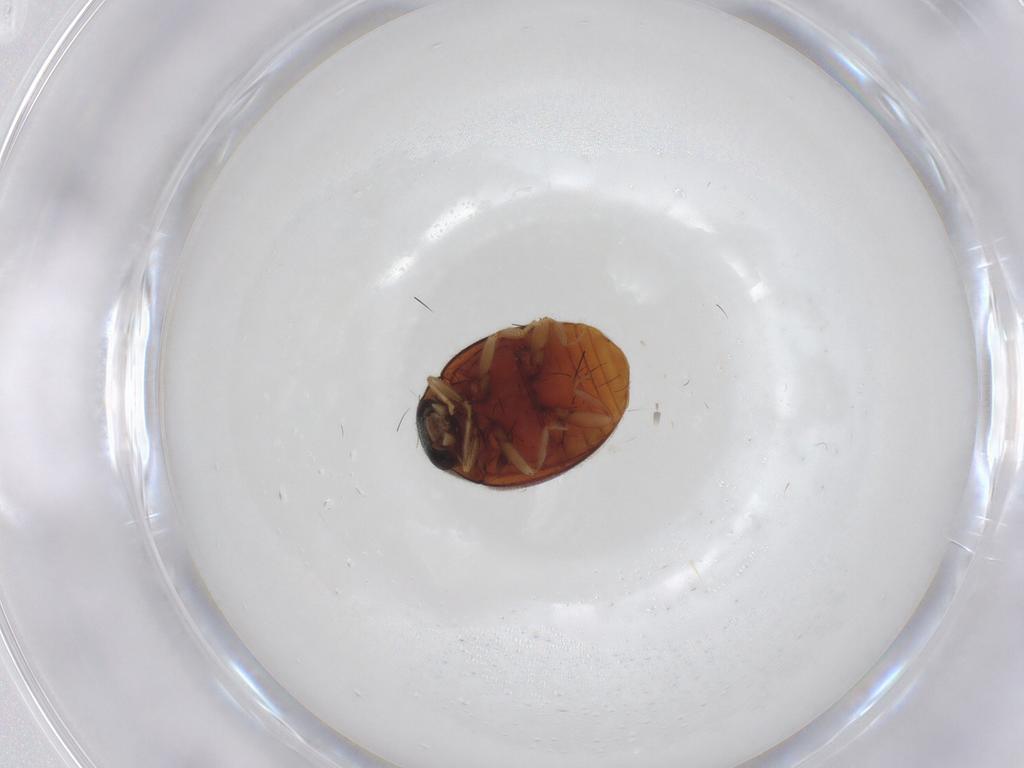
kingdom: Animalia
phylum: Arthropoda
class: Insecta
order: Coleoptera
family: Coccinellidae
